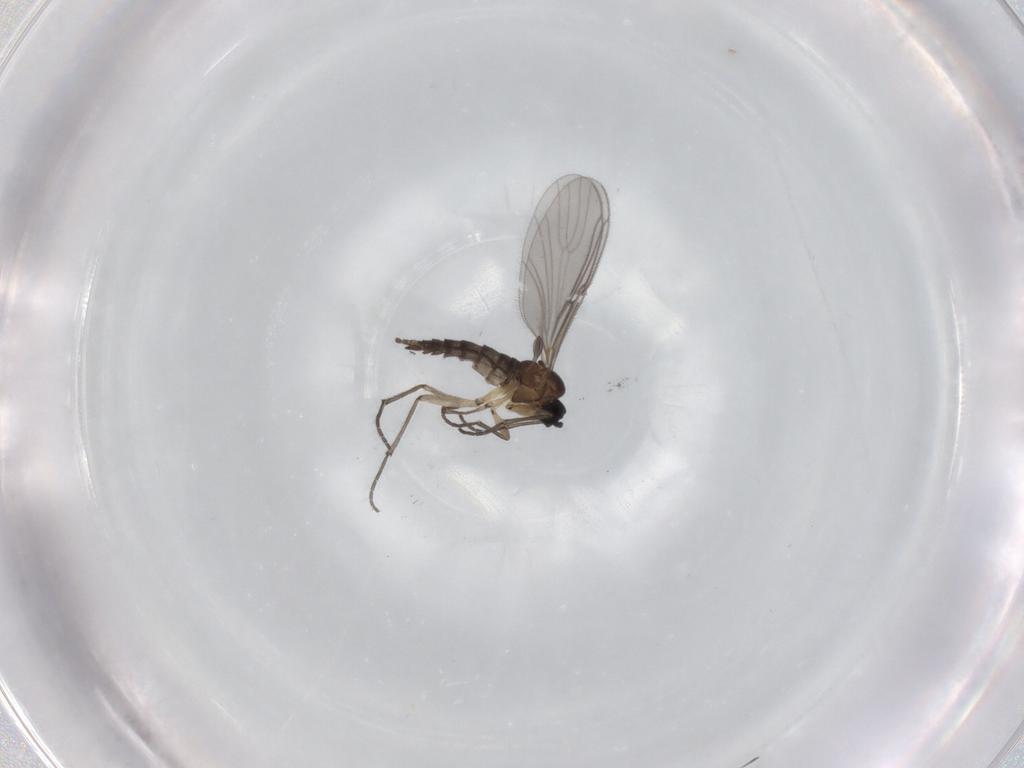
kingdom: Animalia
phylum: Arthropoda
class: Insecta
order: Diptera
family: Sciaridae
